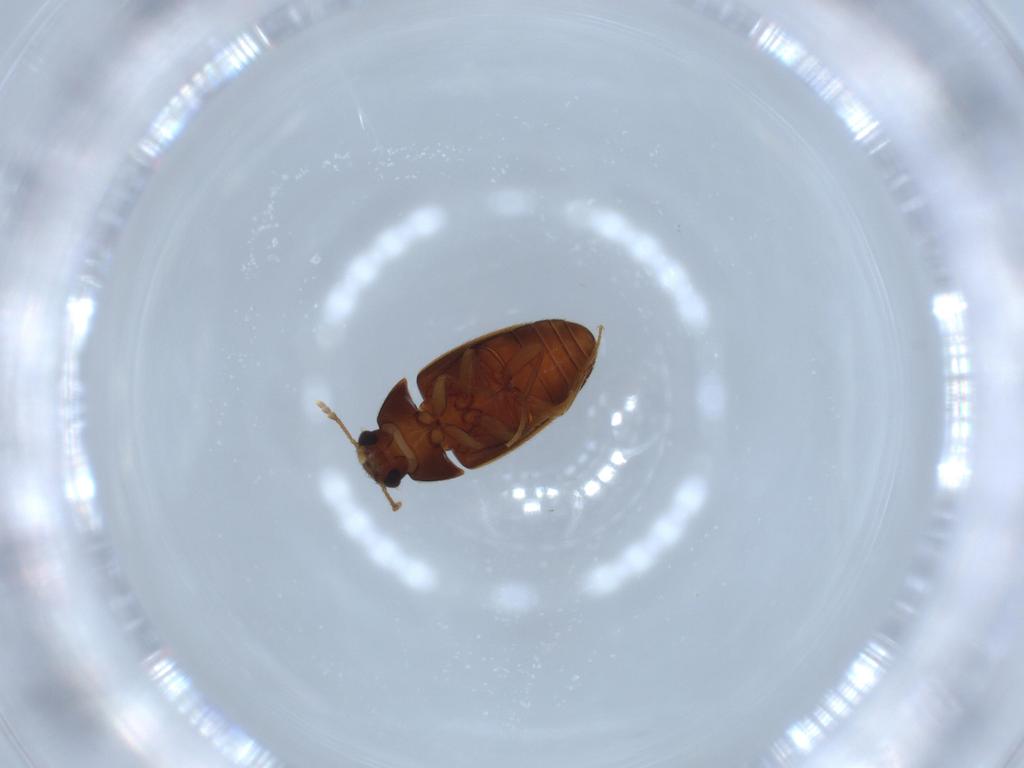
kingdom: Animalia
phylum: Arthropoda
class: Insecta
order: Coleoptera
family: Mycetophagidae
